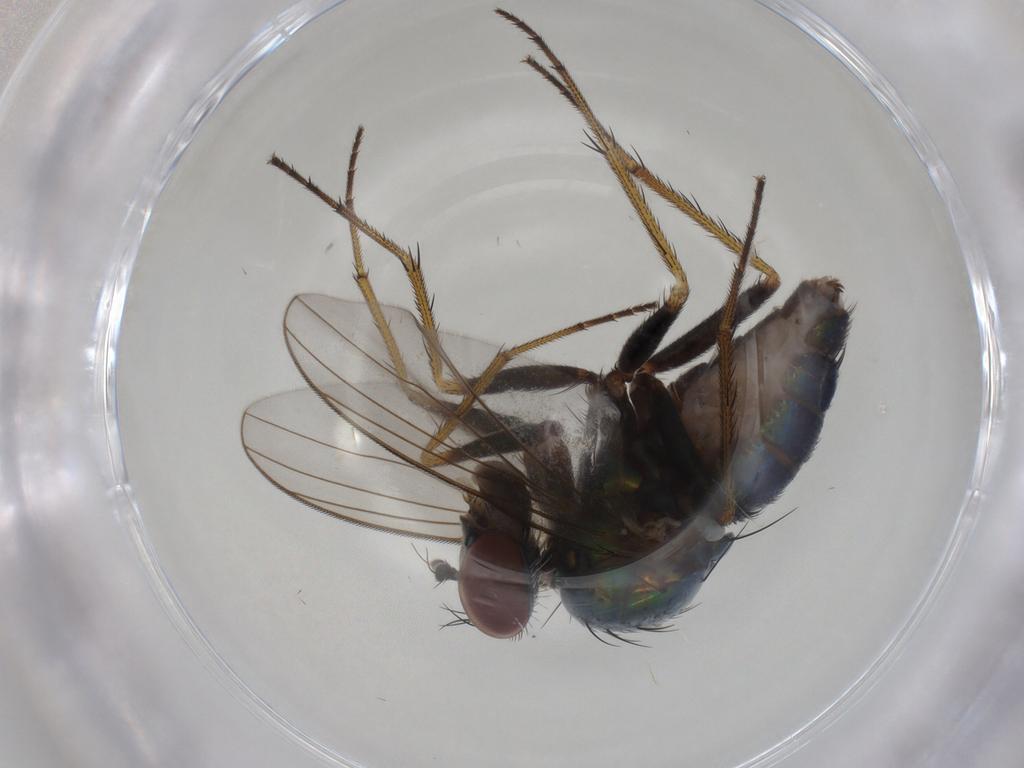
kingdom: Animalia
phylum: Arthropoda
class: Insecta
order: Diptera
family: Dolichopodidae
